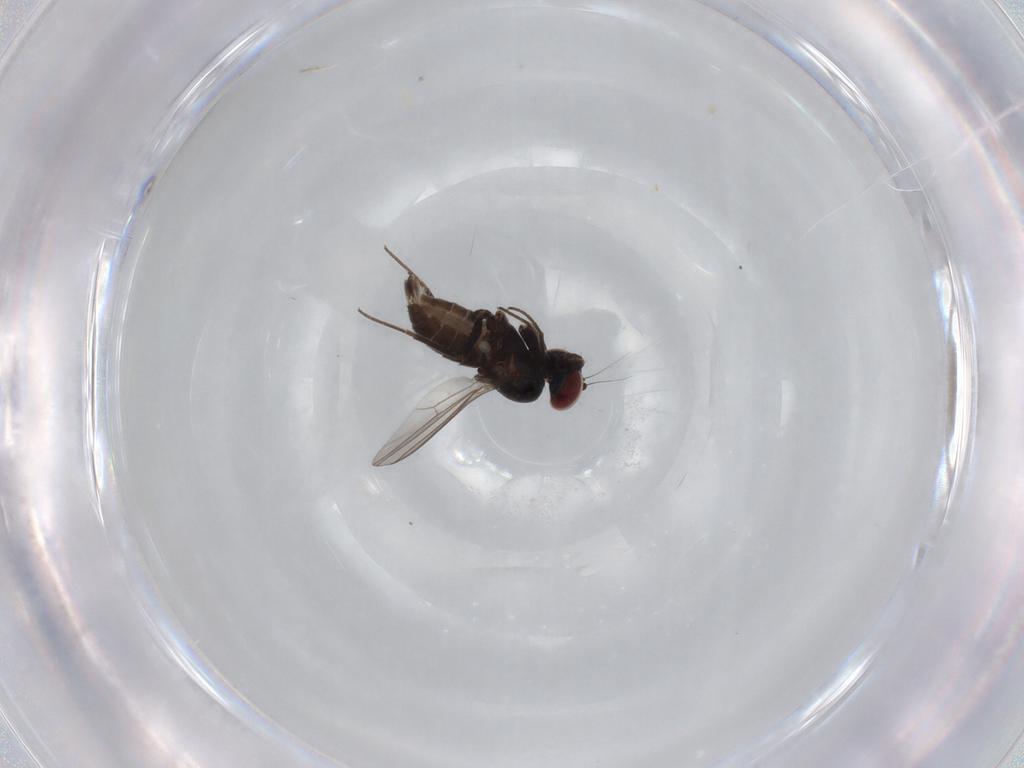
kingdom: Animalia
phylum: Arthropoda
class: Insecta
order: Diptera
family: Dolichopodidae
